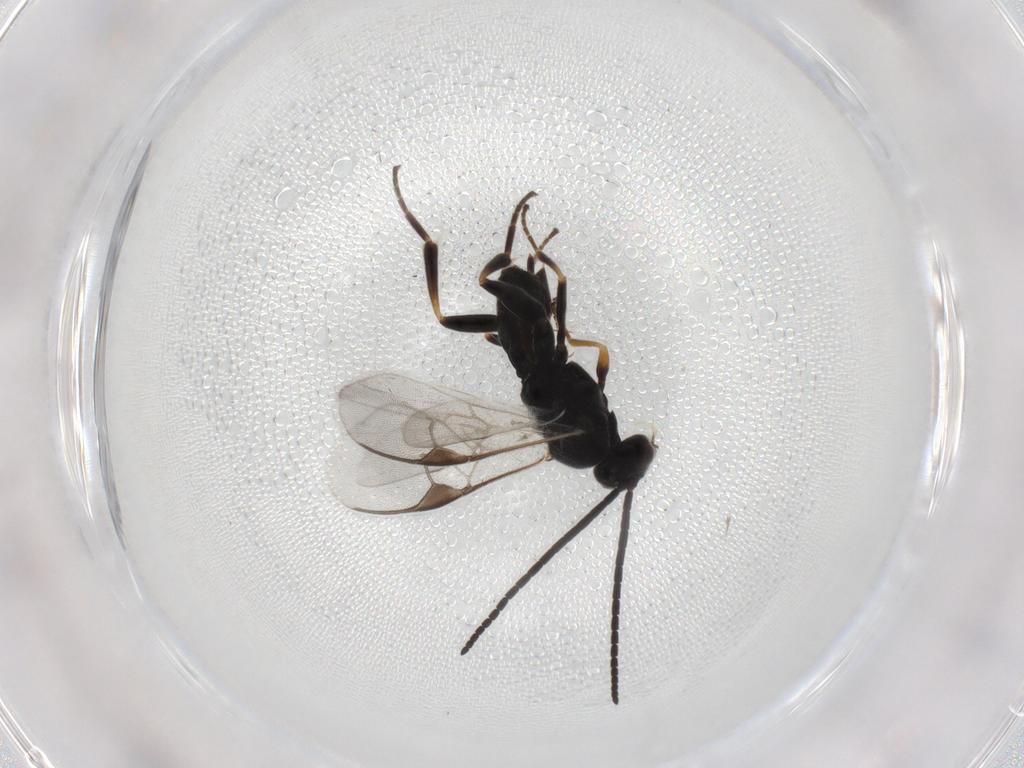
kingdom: Animalia
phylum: Arthropoda
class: Insecta
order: Hymenoptera
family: Braconidae
